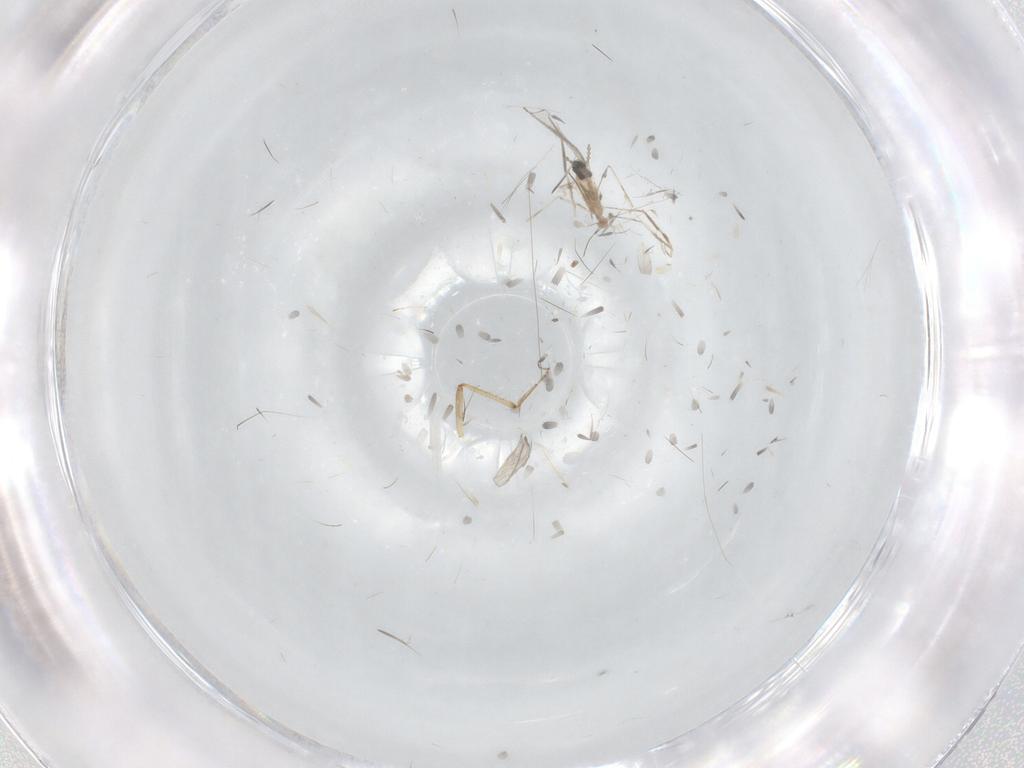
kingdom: Animalia
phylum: Arthropoda
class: Insecta
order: Diptera
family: Cecidomyiidae
